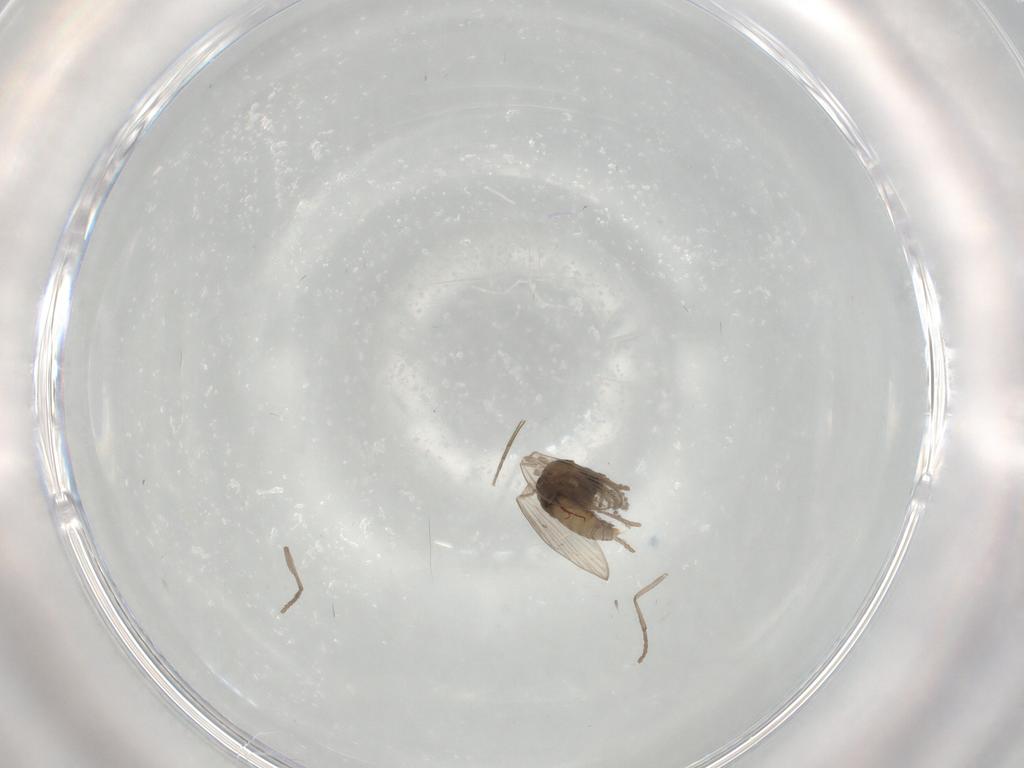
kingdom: Animalia
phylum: Arthropoda
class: Insecta
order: Diptera
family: Psychodidae
